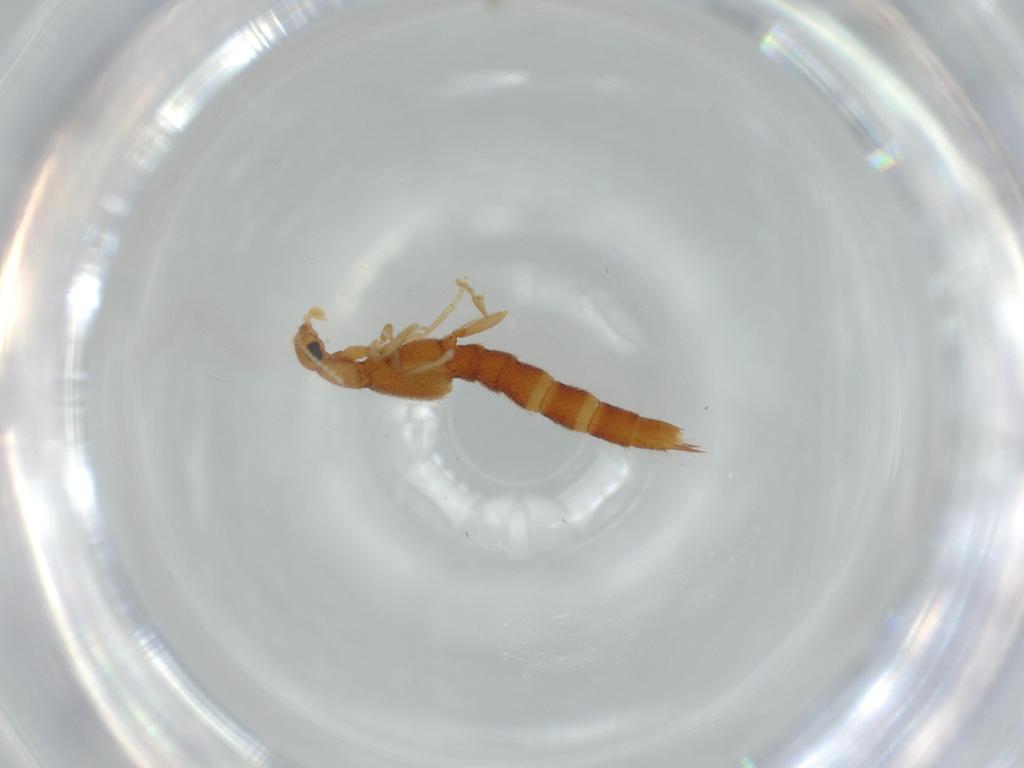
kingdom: Animalia
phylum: Arthropoda
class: Insecta
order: Coleoptera
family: Staphylinidae
